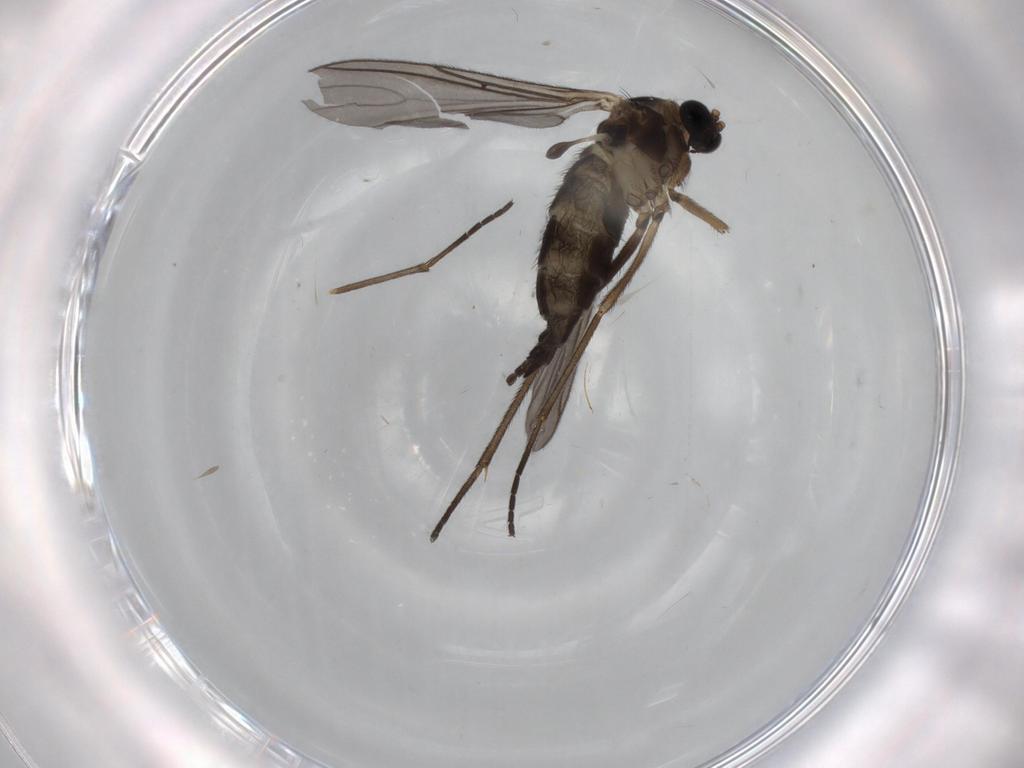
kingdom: Animalia
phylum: Arthropoda
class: Insecta
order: Diptera
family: Sciaridae
